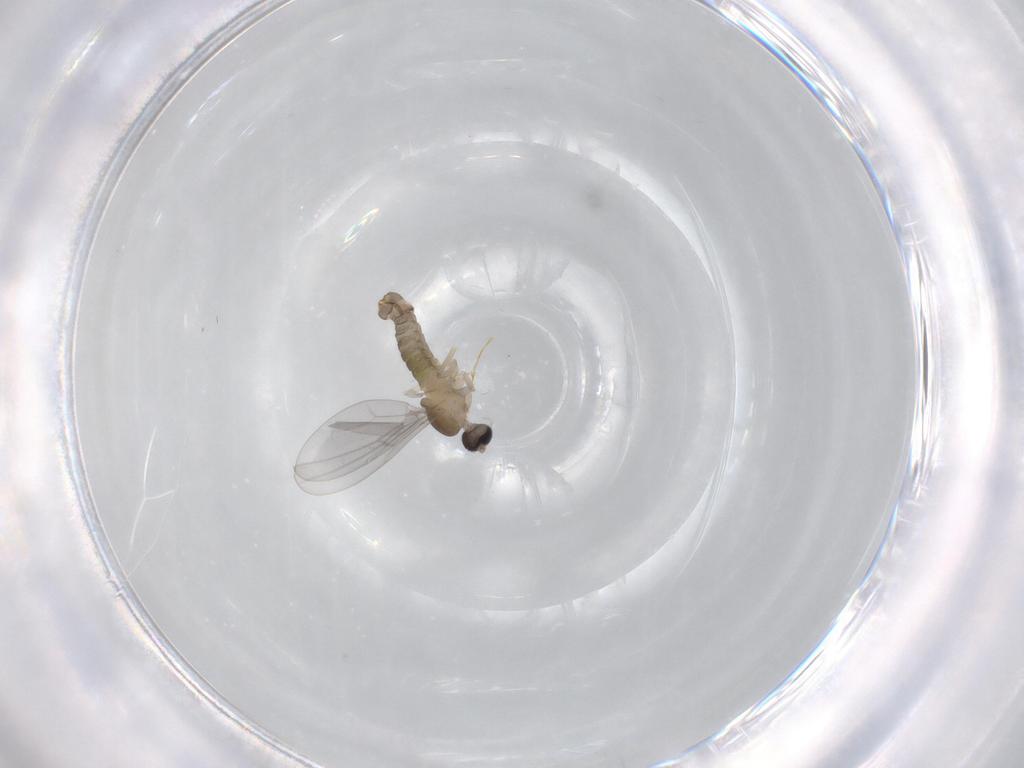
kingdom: Animalia
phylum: Arthropoda
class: Insecta
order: Diptera
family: Cecidomyiidae
